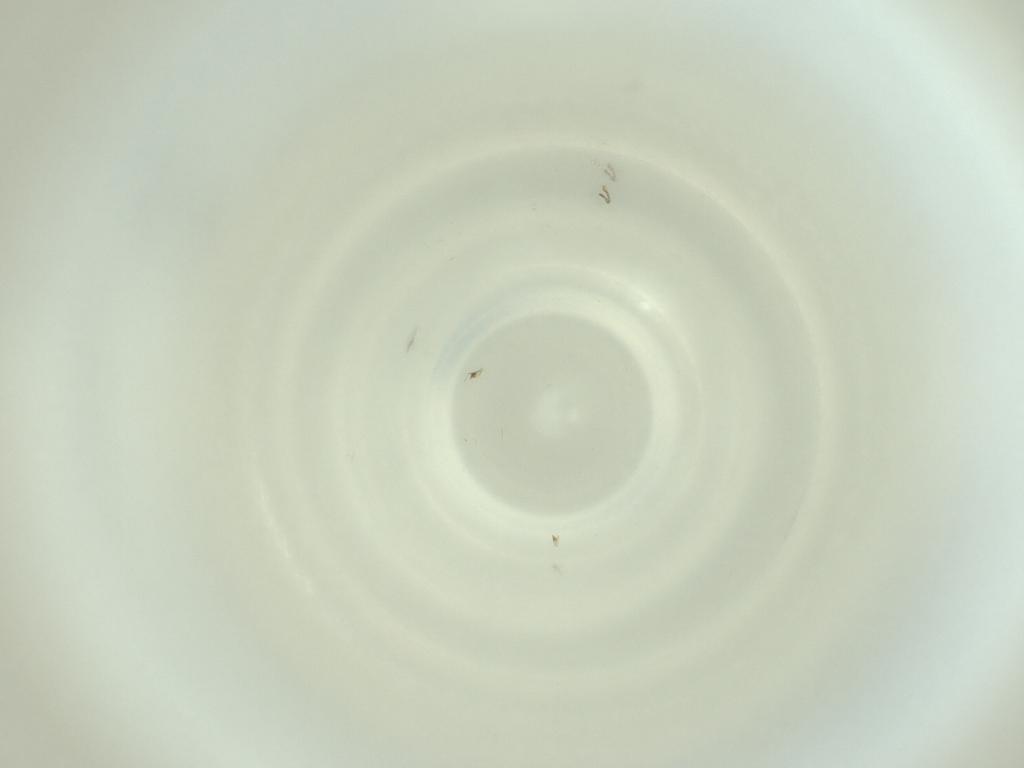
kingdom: Animalia
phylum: Arthropoda
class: Insecta
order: Diptera
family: Cecidomyiidae
